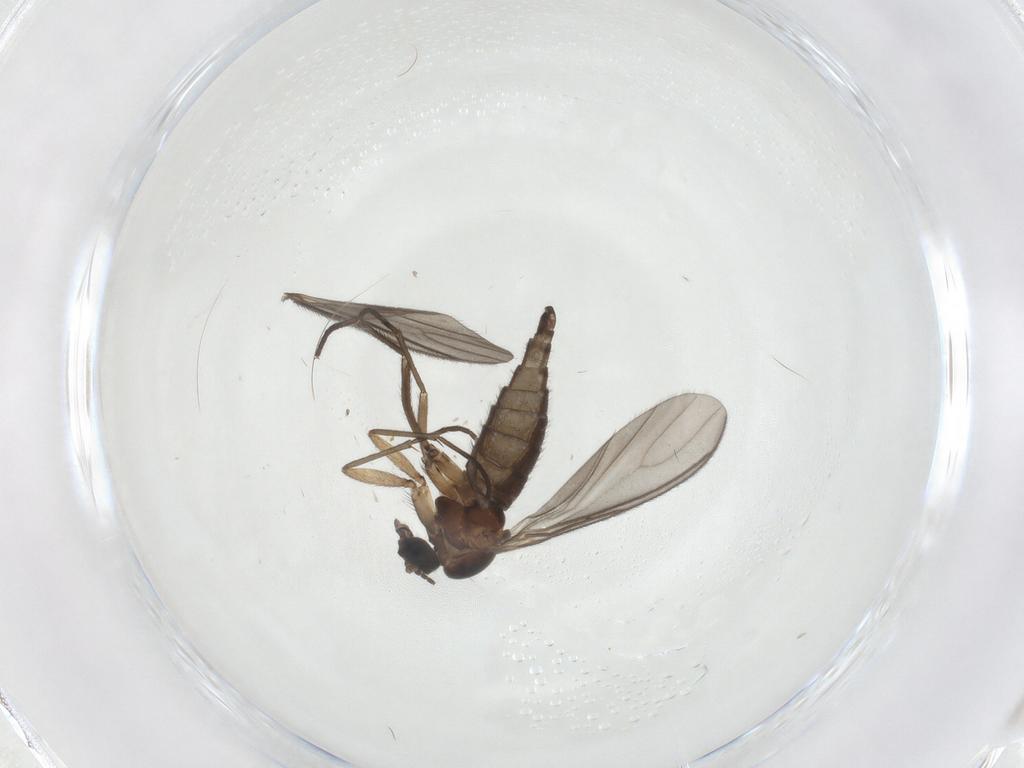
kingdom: Animalia
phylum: Arthropoda
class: Insecta
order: Diptera
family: Sciaridae
